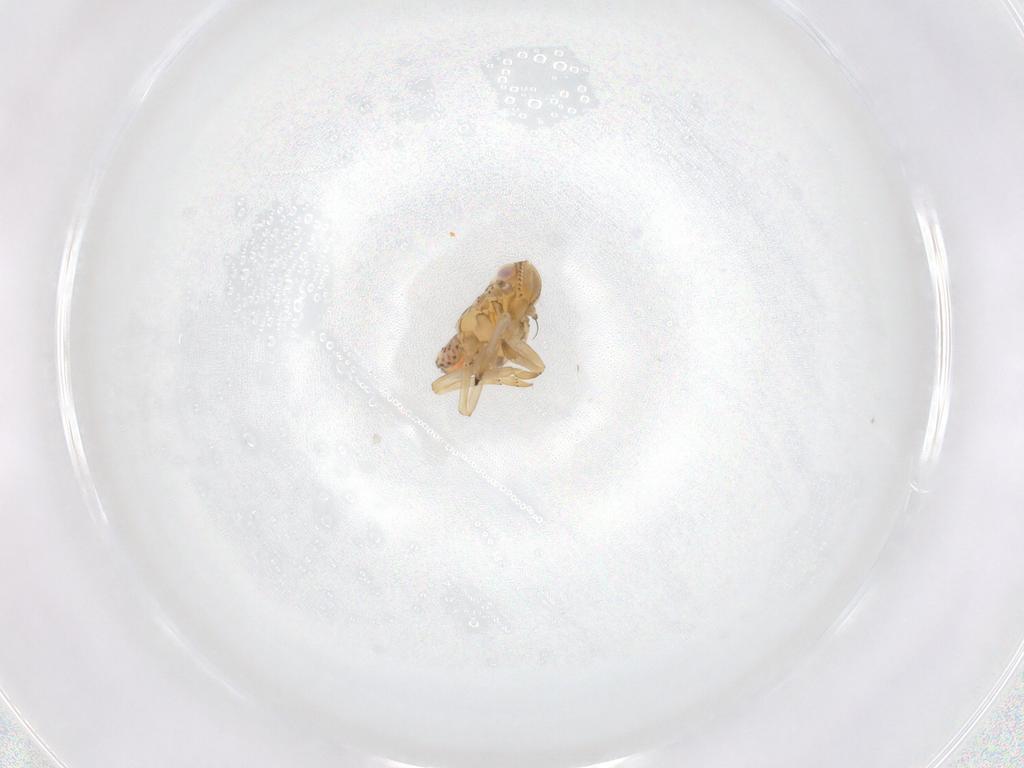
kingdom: Animalia
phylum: Arthropoda
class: Insecta
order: Hemiptera
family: Tropiduchidae
